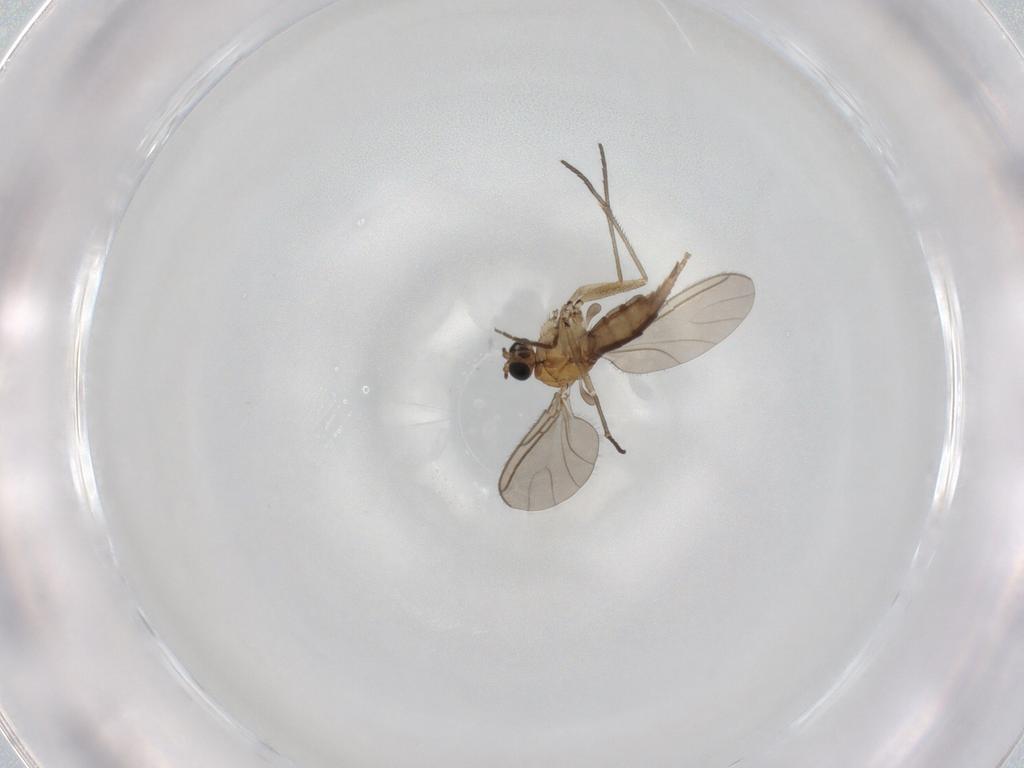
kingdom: Animalia
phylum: Arthropoda
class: Insecta
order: Diptera
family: Sciaridae
